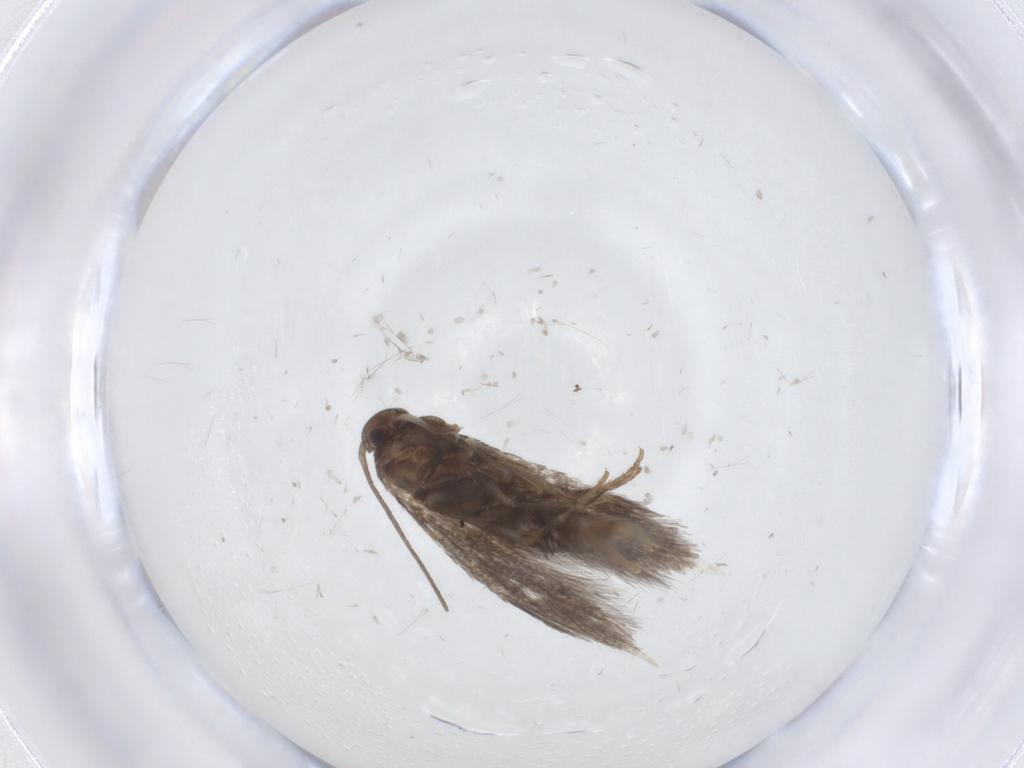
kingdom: Animalia
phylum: Arthropoda
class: Insecta
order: Lepidoptera
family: Elachistidae
